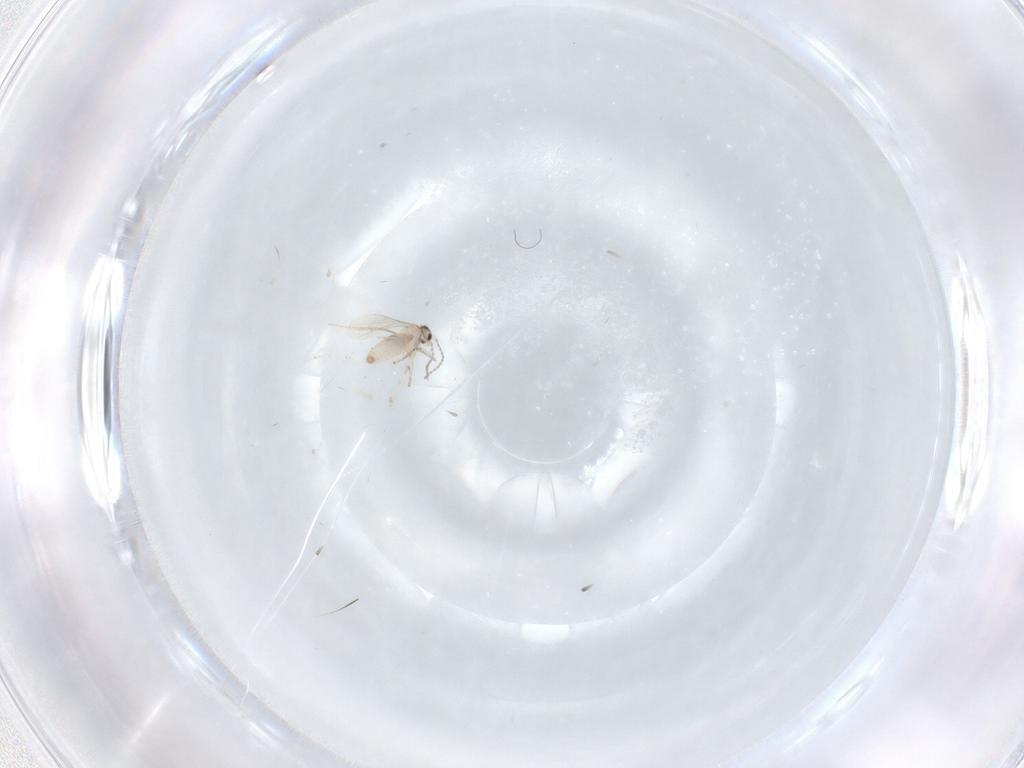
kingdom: Animalia
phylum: Arthropoda
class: Insecta
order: Diptera
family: Cecidomyiidae
